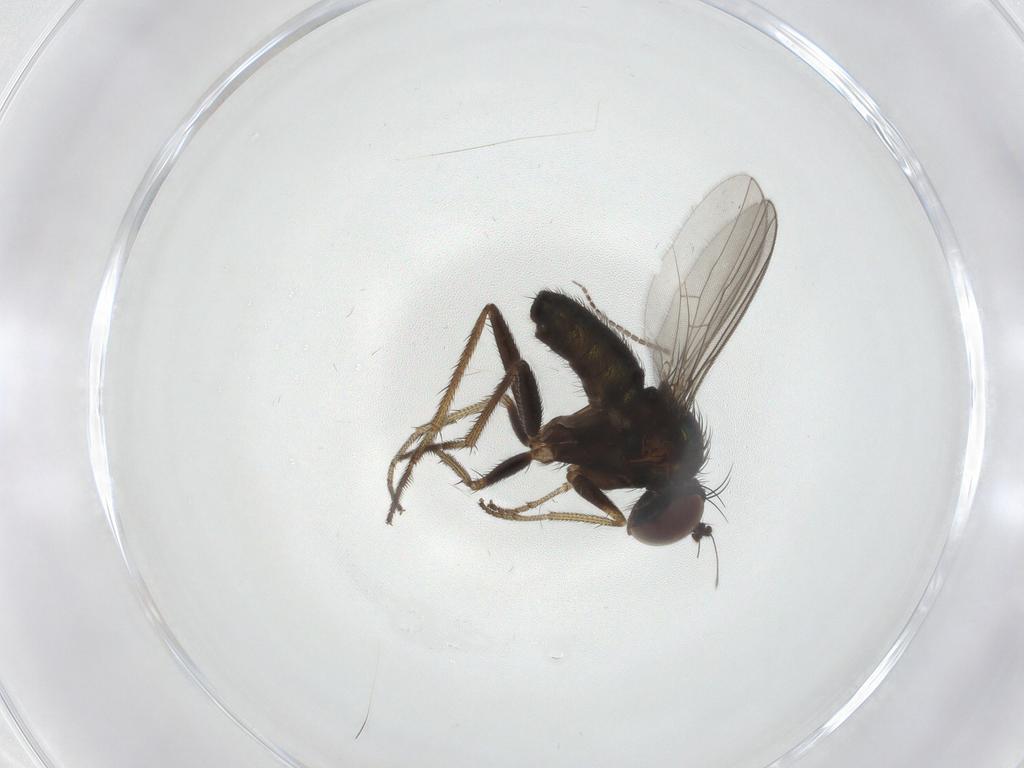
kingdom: Animalia
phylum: Arthropoda
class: Insecta
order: Diptera
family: Sciaridae
